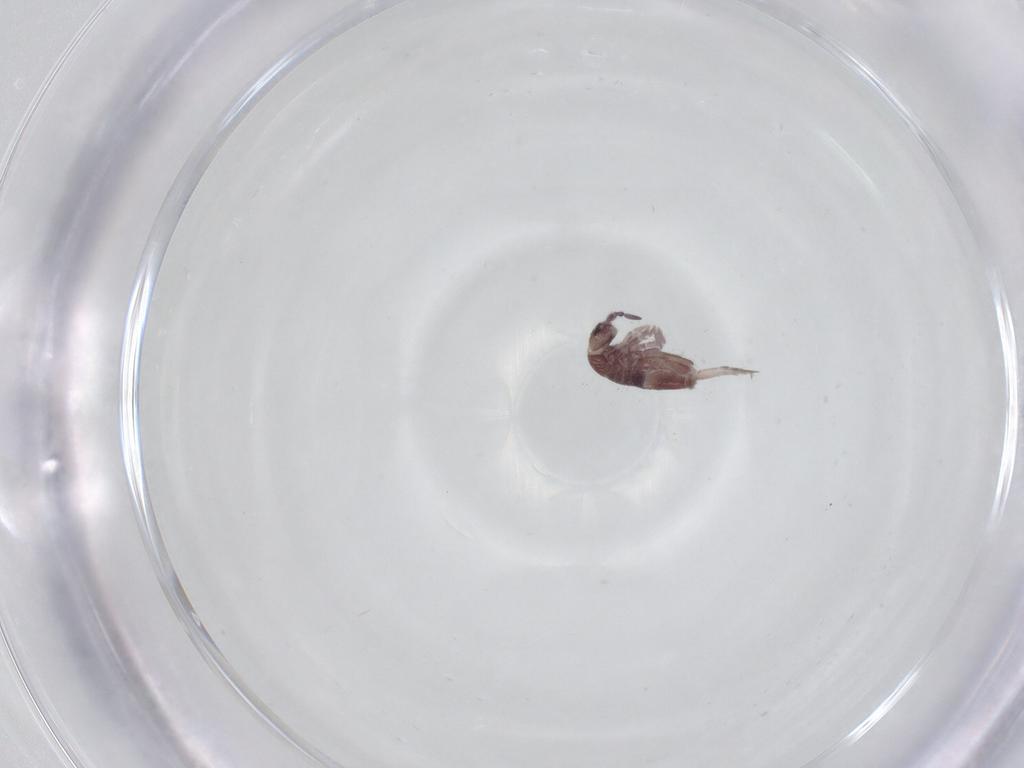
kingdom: Animalia
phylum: Arthropoda
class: Collembola
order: Entomobryomorpha
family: Entomobryidae
